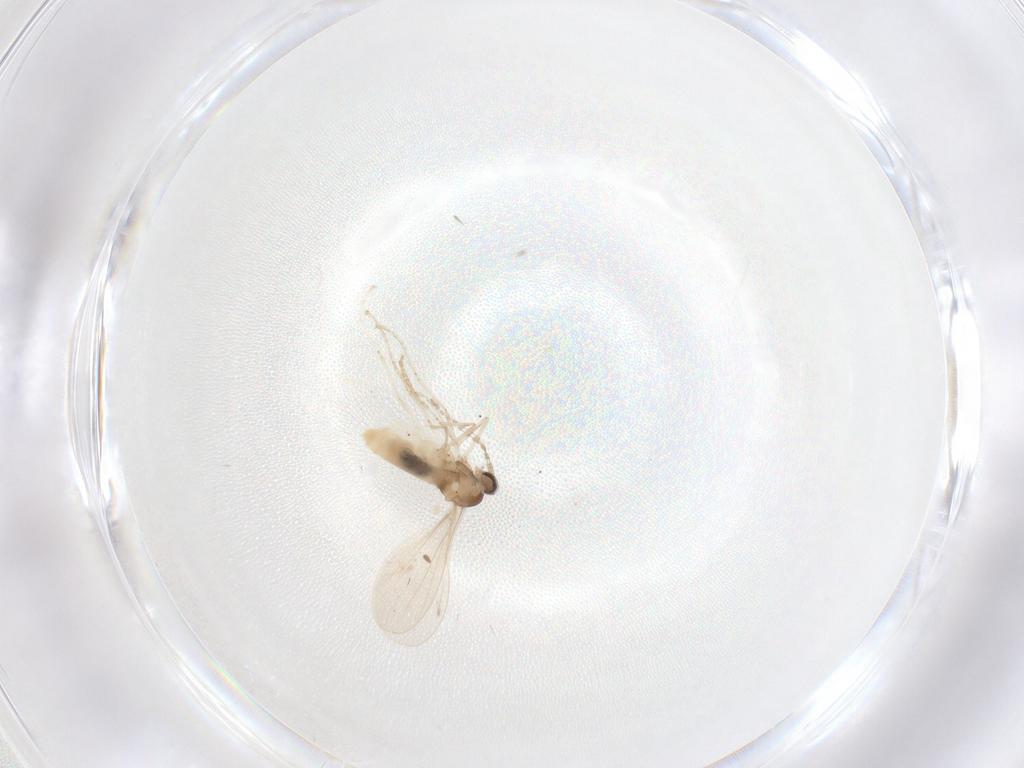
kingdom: Animalia
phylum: Arthropoda
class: Insecta
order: Diptera
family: Cecidomyiidae
